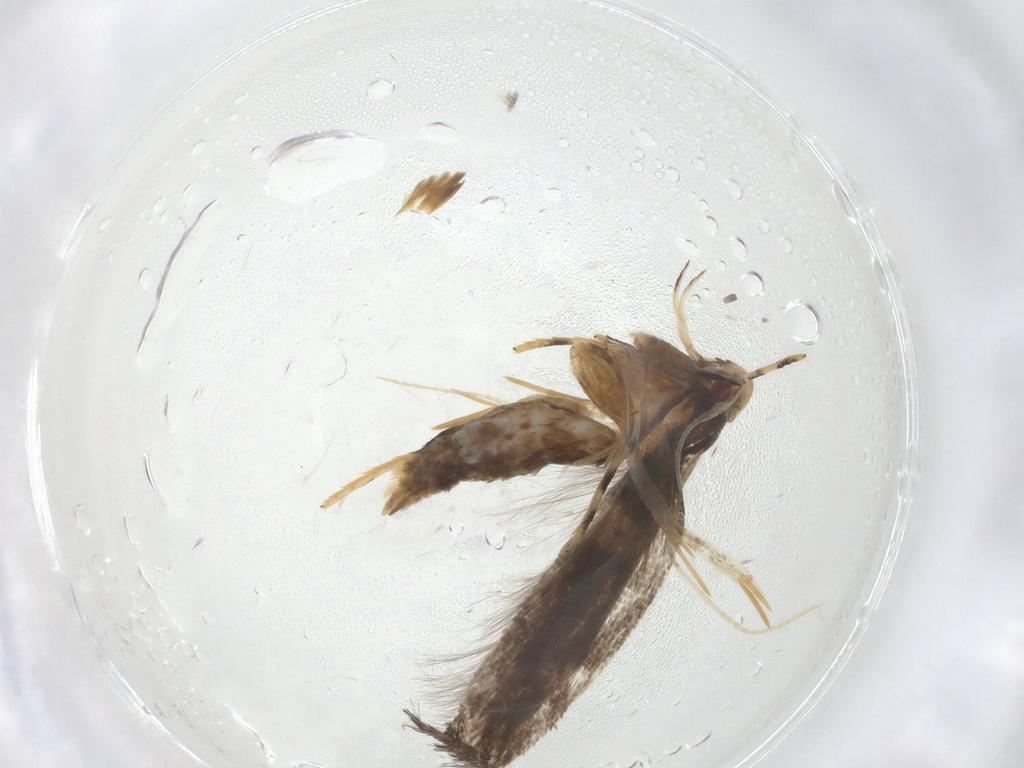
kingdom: Animalia
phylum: Arthropoda
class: Insecta
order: Lepidoptera
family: Cosmopterigidae
